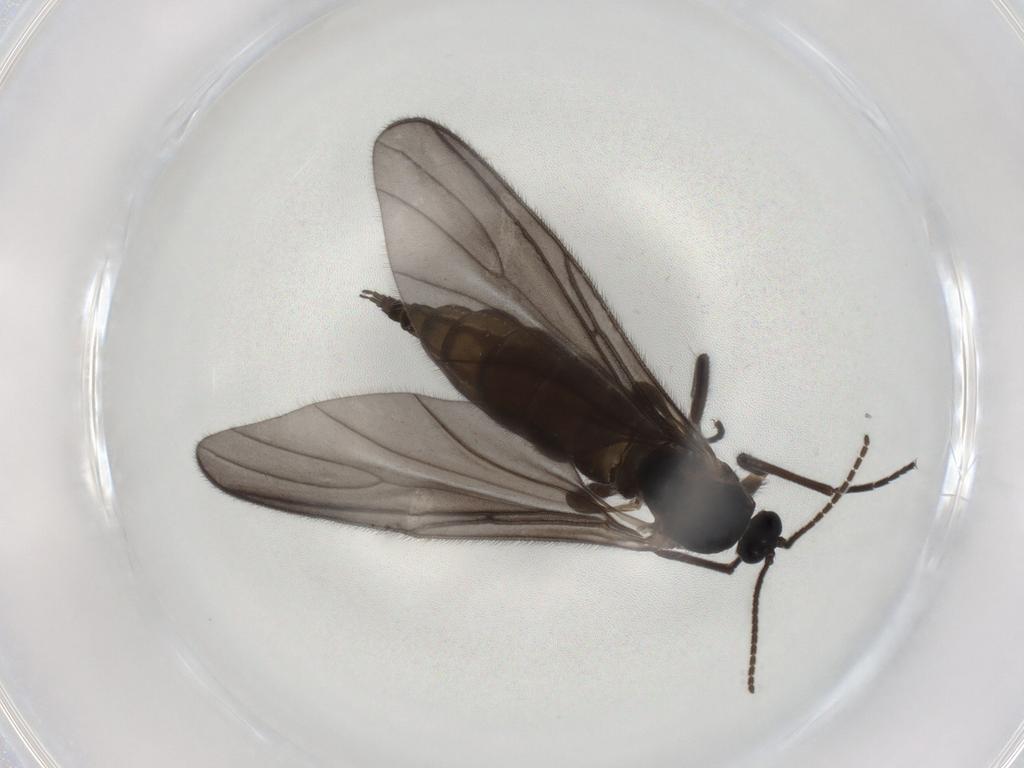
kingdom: Animalia
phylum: Arthropoda
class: Insecta
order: Diptera
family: Sciaridae
